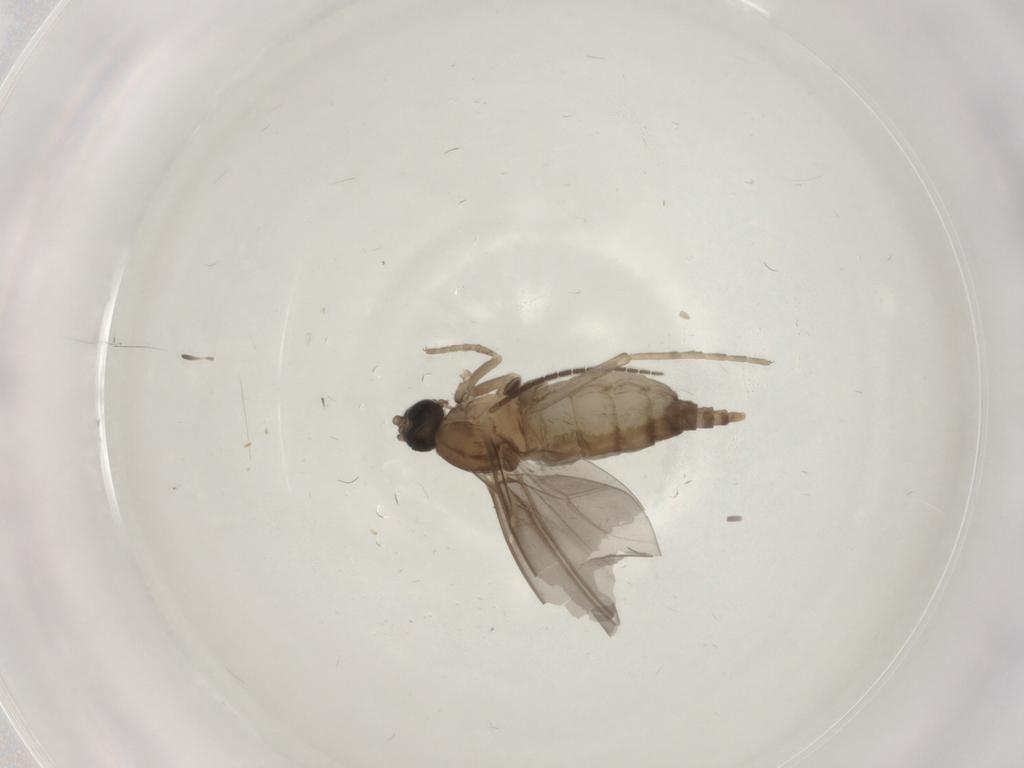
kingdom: Animalia
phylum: Arthropoda
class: Insecta
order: Diptera
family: Cecidomyiidae
